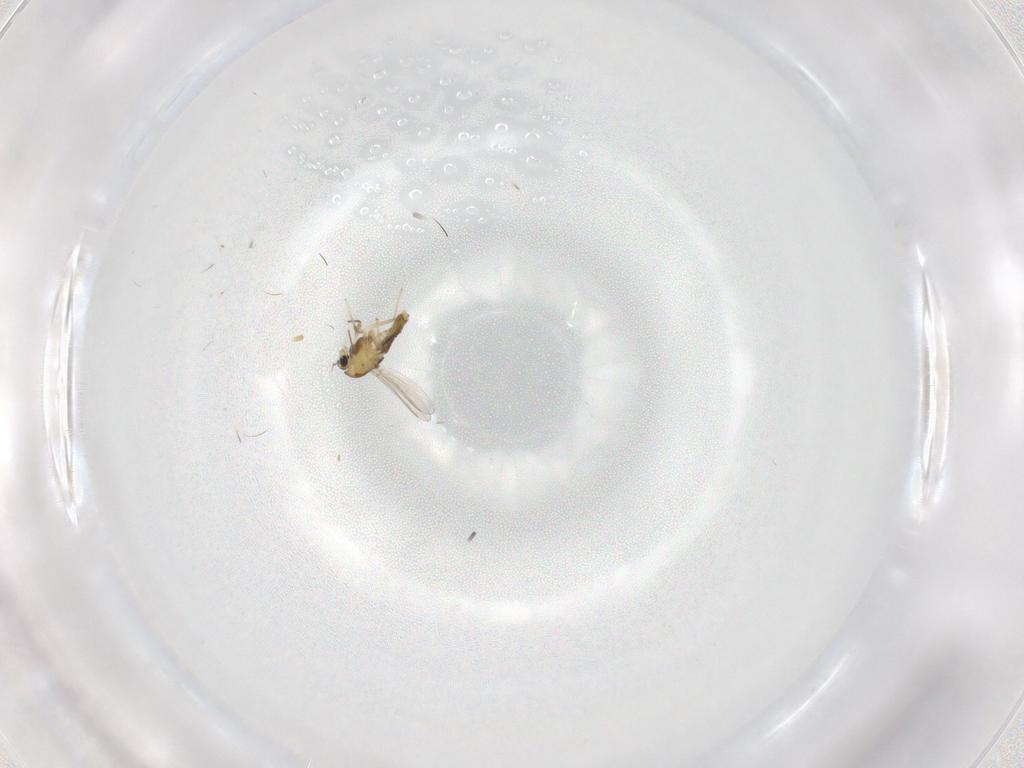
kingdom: Animalia
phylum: Arthropoda
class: Insecta
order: Diptera
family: Chironomidae
